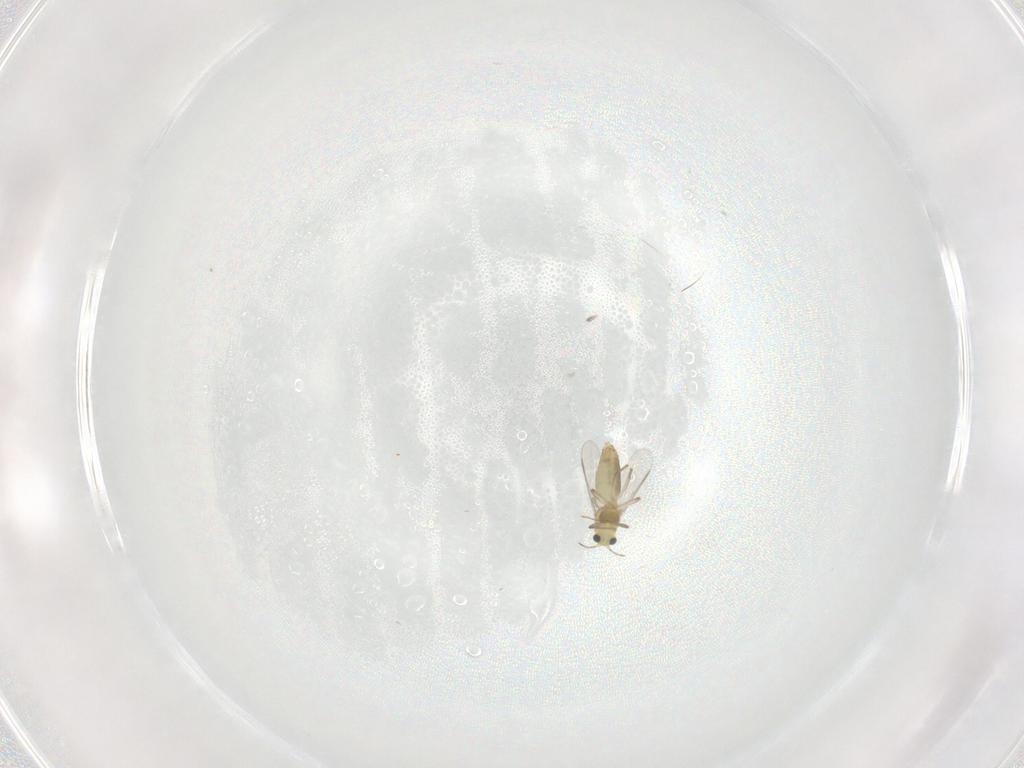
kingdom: Animalia
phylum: Arthropoda
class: Insecta
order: Diptera
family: Chironomidae
